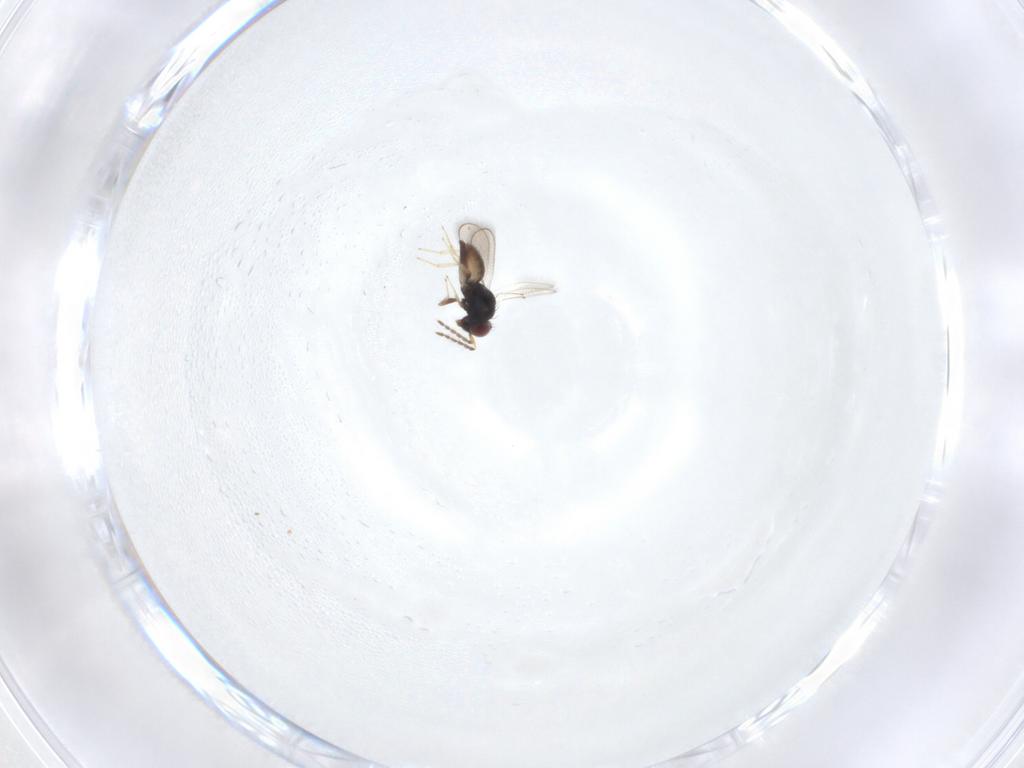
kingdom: Animalia
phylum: Arthropoda
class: Insecta
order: Hymenoptera
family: Eulophidae
